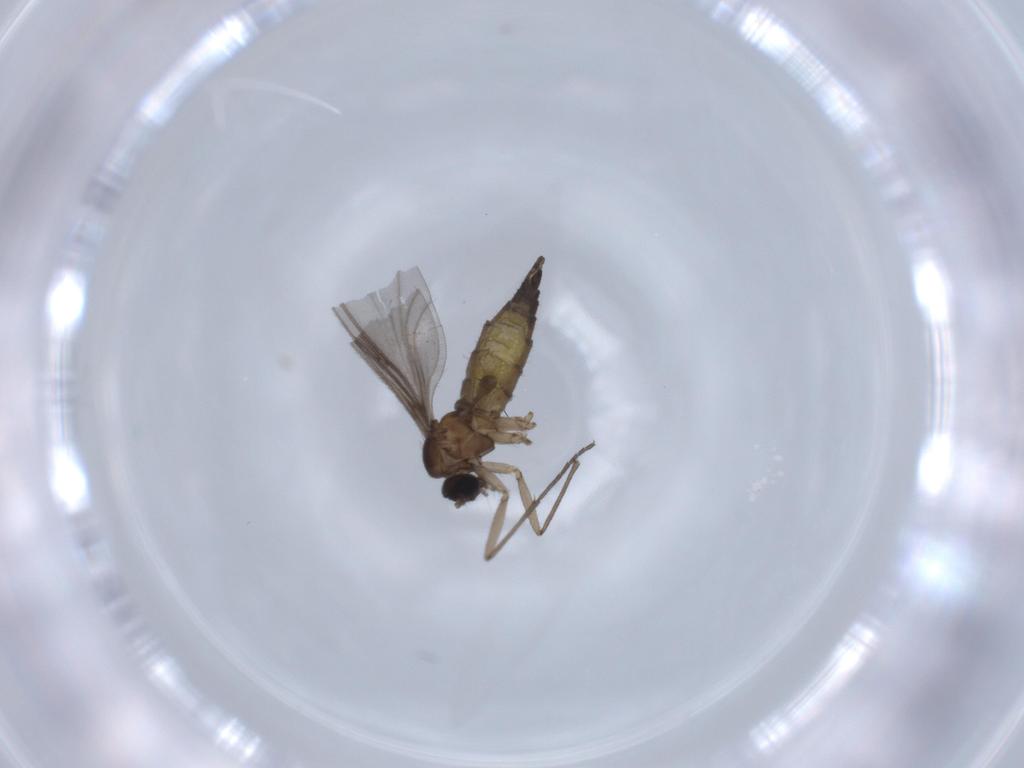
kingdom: Animalia
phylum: Arthropoda
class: Insecta
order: Diptera
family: Sciaridae
